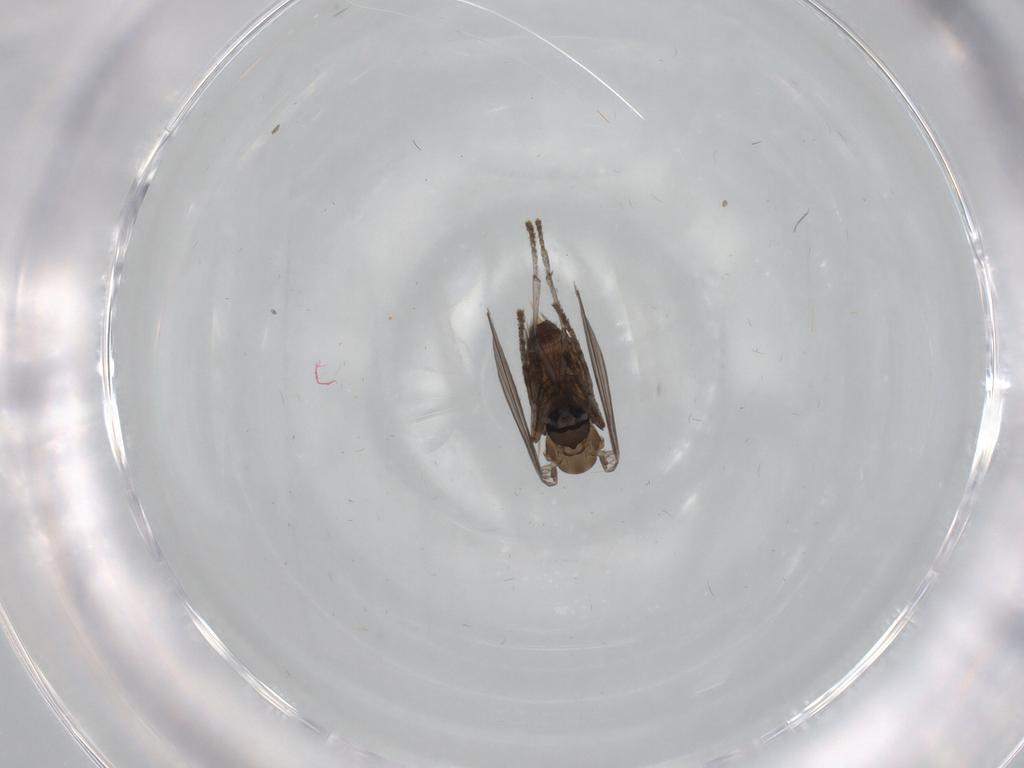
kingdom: Animalia
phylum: Arthropoda
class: Insecta
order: Diptera
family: Psychodidae
